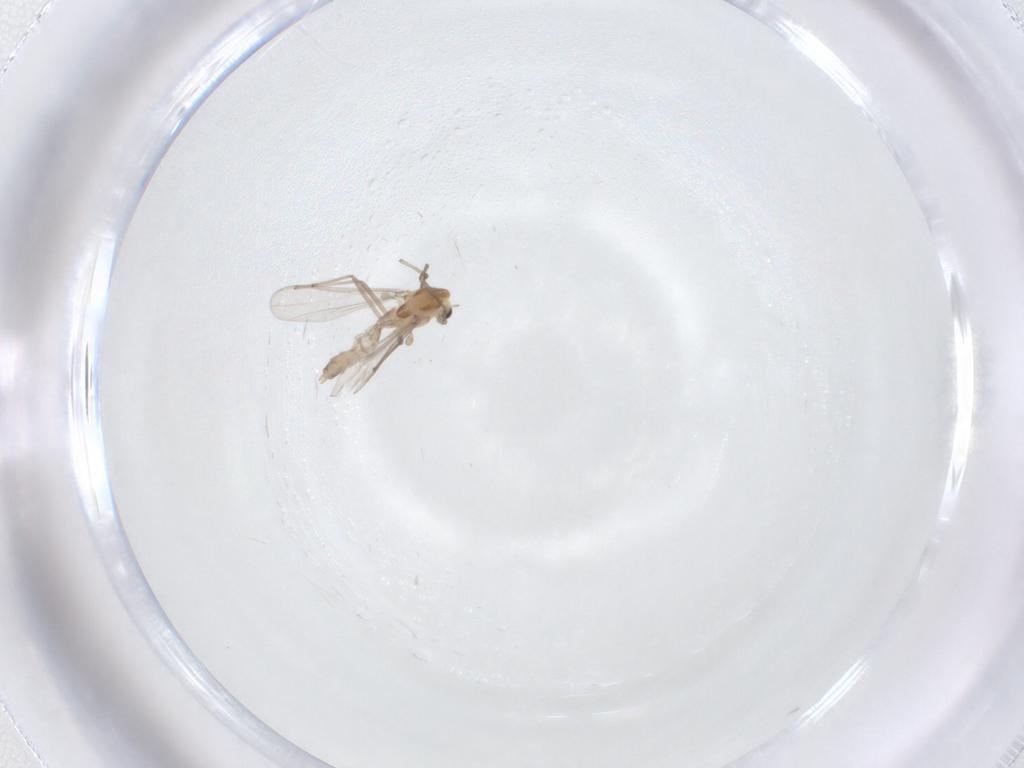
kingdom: Animalia
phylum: Arthropoda
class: Insecta
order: Diptera
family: Chironomidae
